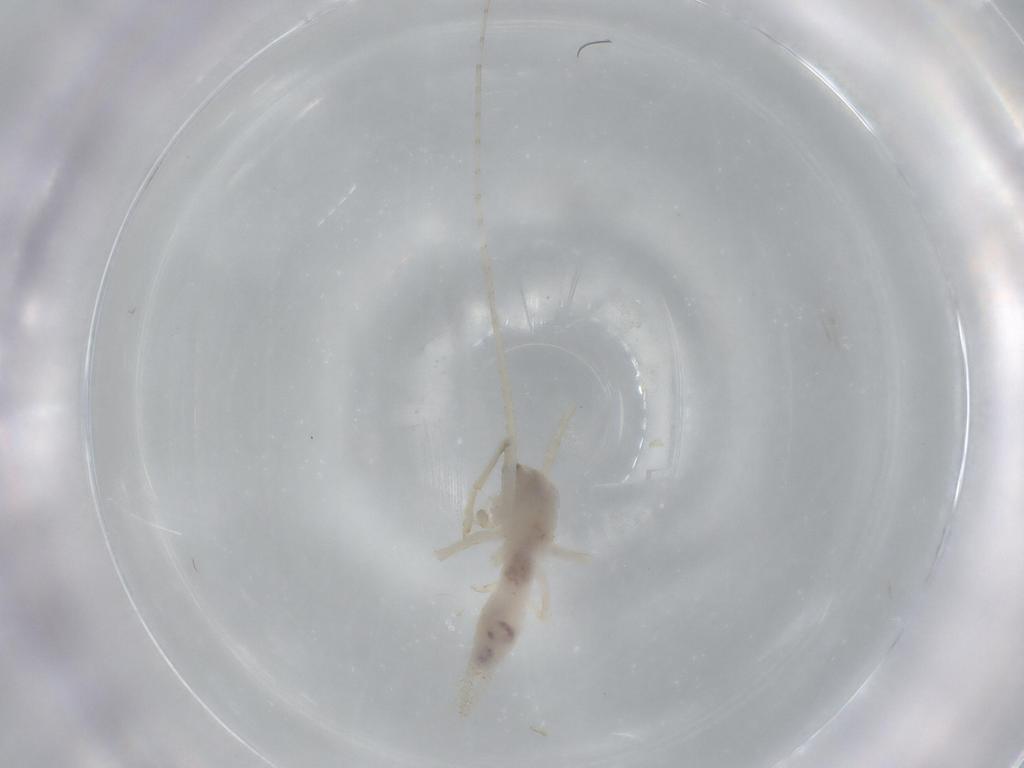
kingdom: Animalia
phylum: Arthropoda
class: Insecta
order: Orthoptera
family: Trigonidiidae
